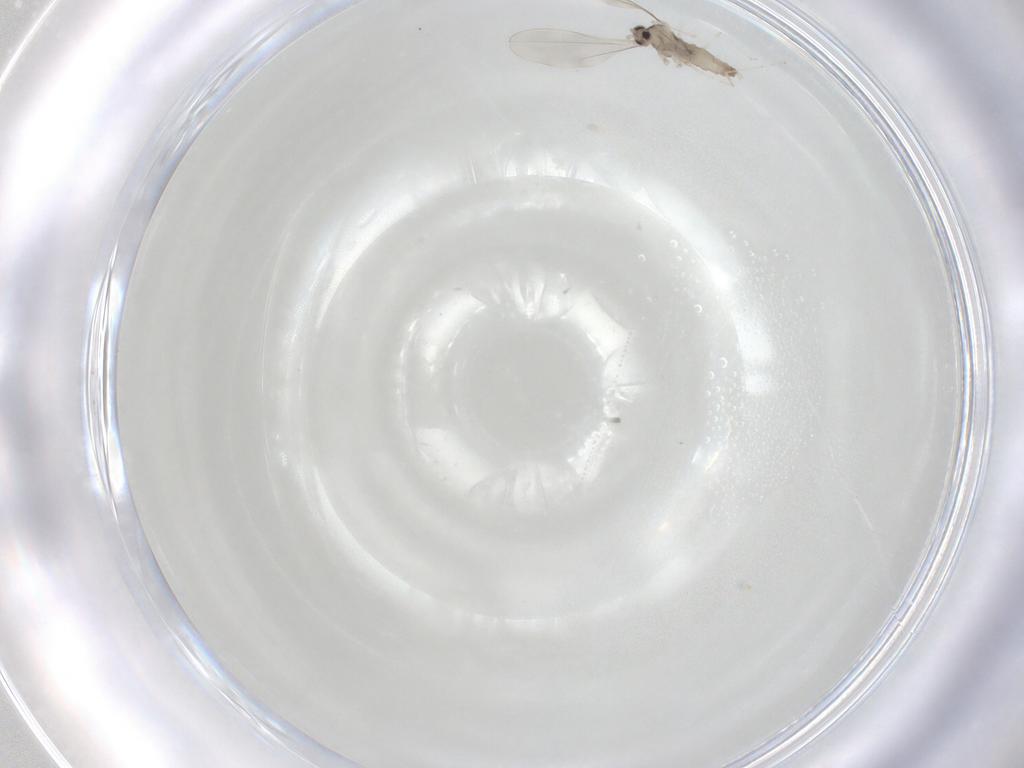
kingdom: Animalia
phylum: Arthropoda
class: Insecta
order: Diptera
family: Cecidomyiidae
